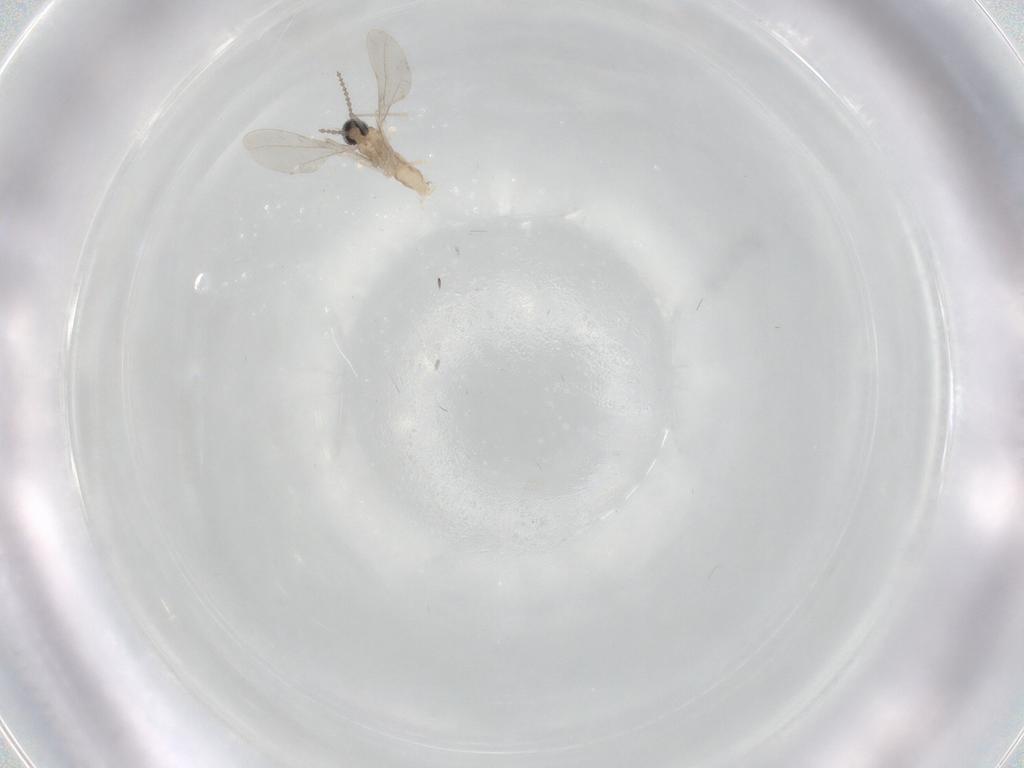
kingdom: Animalia
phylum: Arthropoda
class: Insecta
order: Diptera
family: Cecidomyiidae
